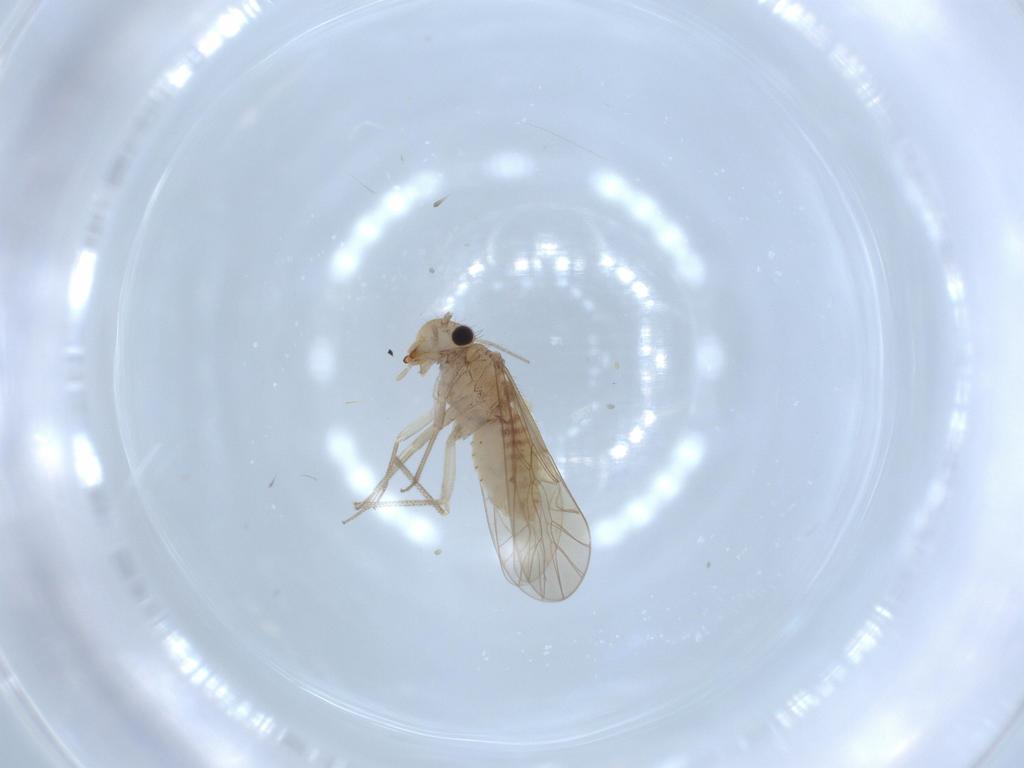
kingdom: Animalia
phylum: Arthropoda
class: Insecta
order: Psocodea
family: Caeciliusidae
